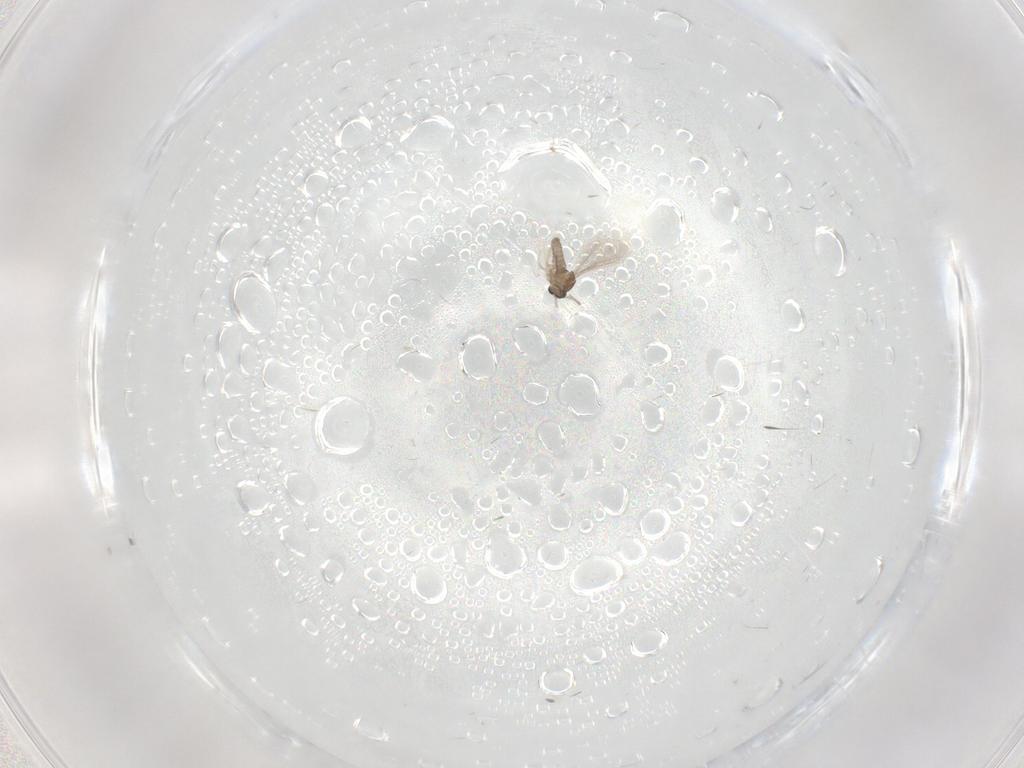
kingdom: Animalia
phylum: Arthropoda
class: Insecta
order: Diptera
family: Cecidomyiidae
